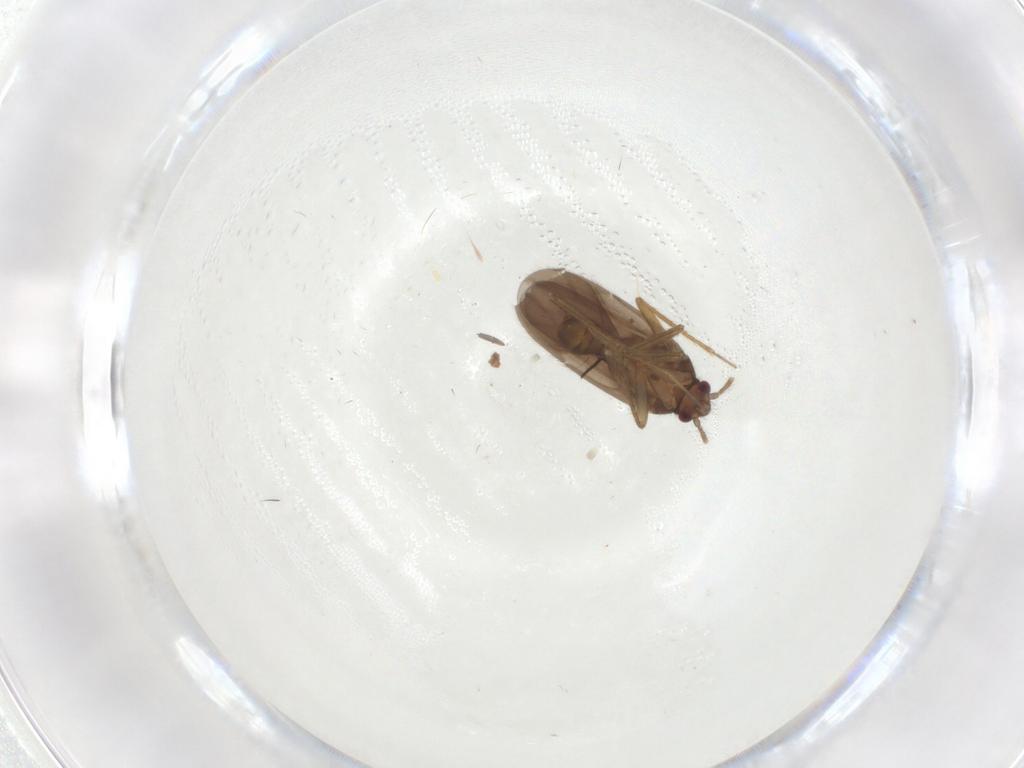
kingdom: Animalia
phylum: Arthropoda
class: Insecta
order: Hemiptera
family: Ceratocombidae
